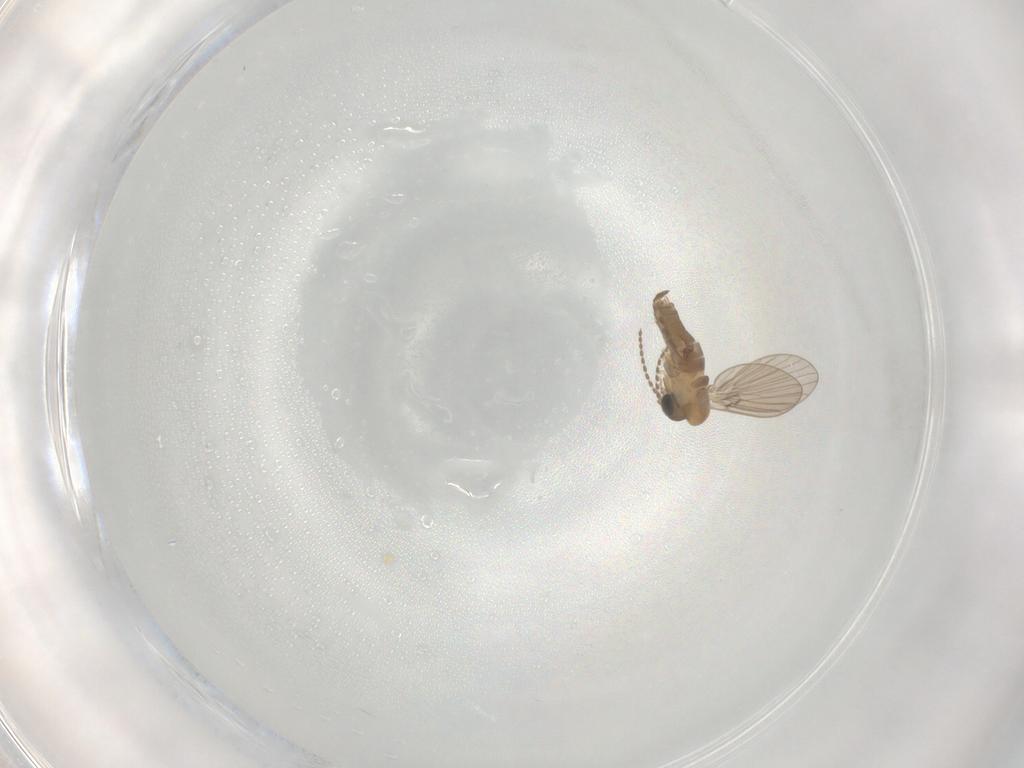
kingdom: Animalia
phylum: Arthropoda
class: Insecta
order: Diptera
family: Psychodidae
